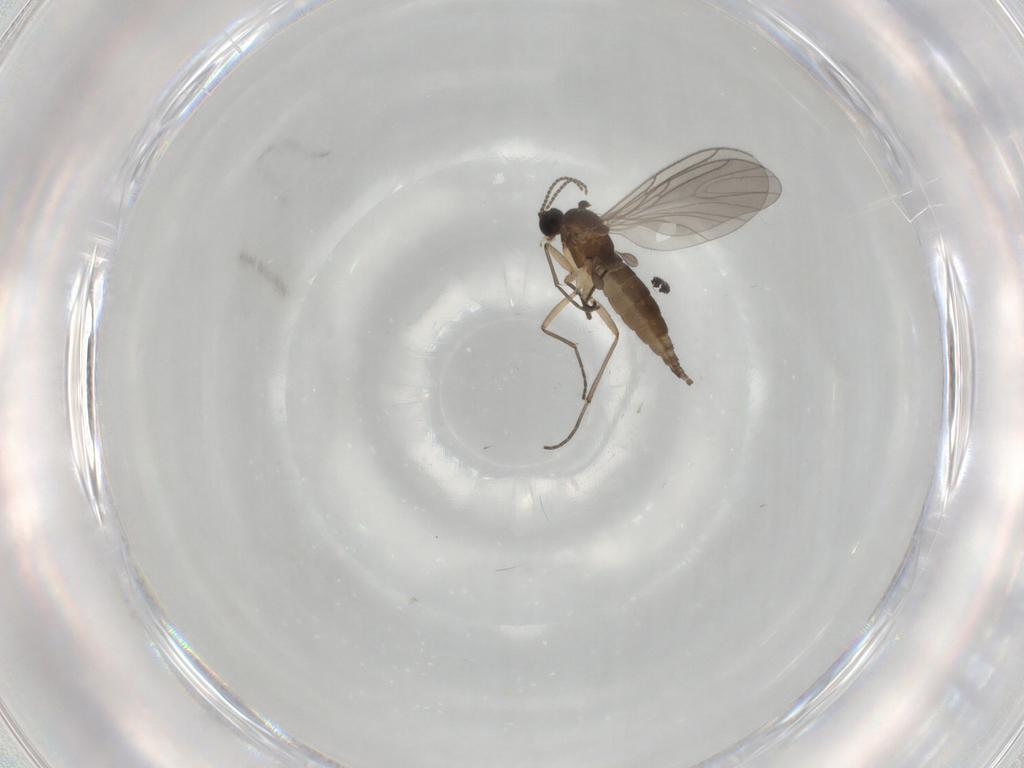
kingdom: Animalia
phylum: Arthropoda
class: Insecta
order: Diptera
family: Sciaridae
